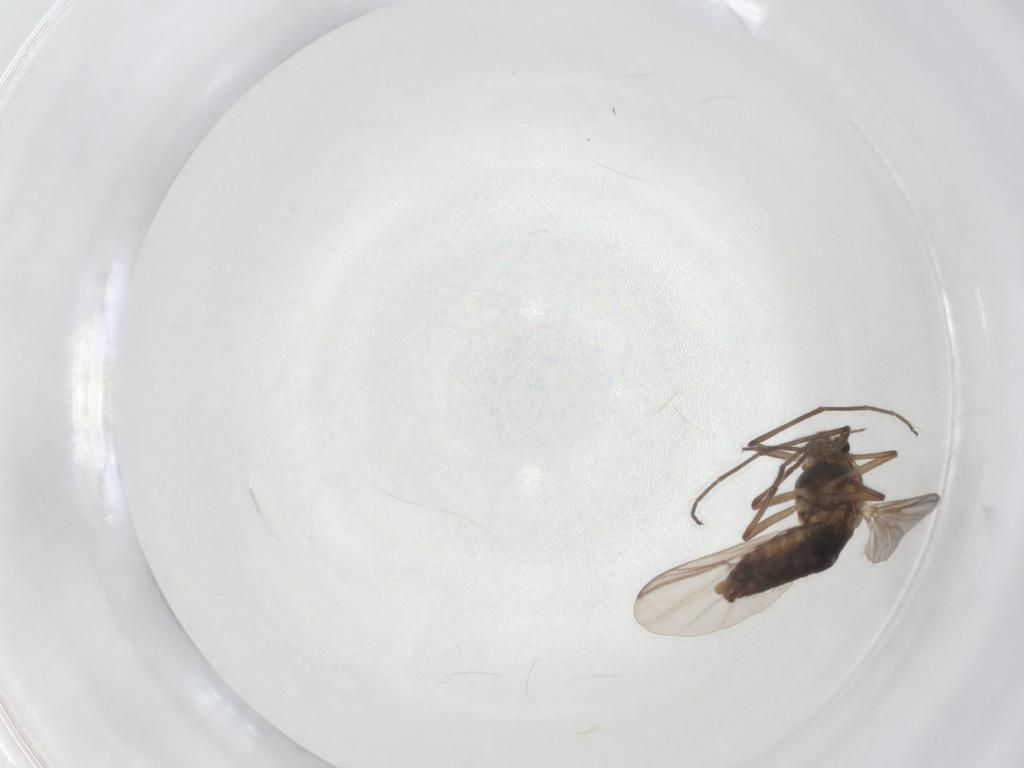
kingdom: Animalia
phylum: Arthropoda
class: Insecta
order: Diptera
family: Chironomidae
